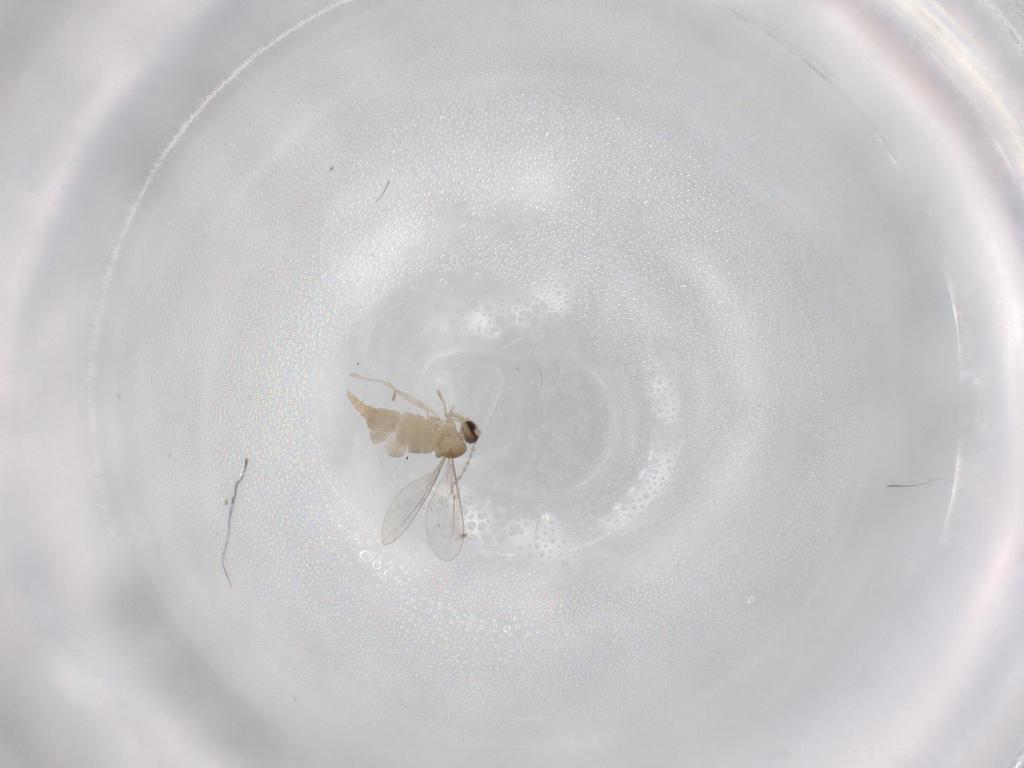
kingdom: Animalia
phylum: Arthropoda
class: Insecta
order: Diptera
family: Cecidomyiidae
